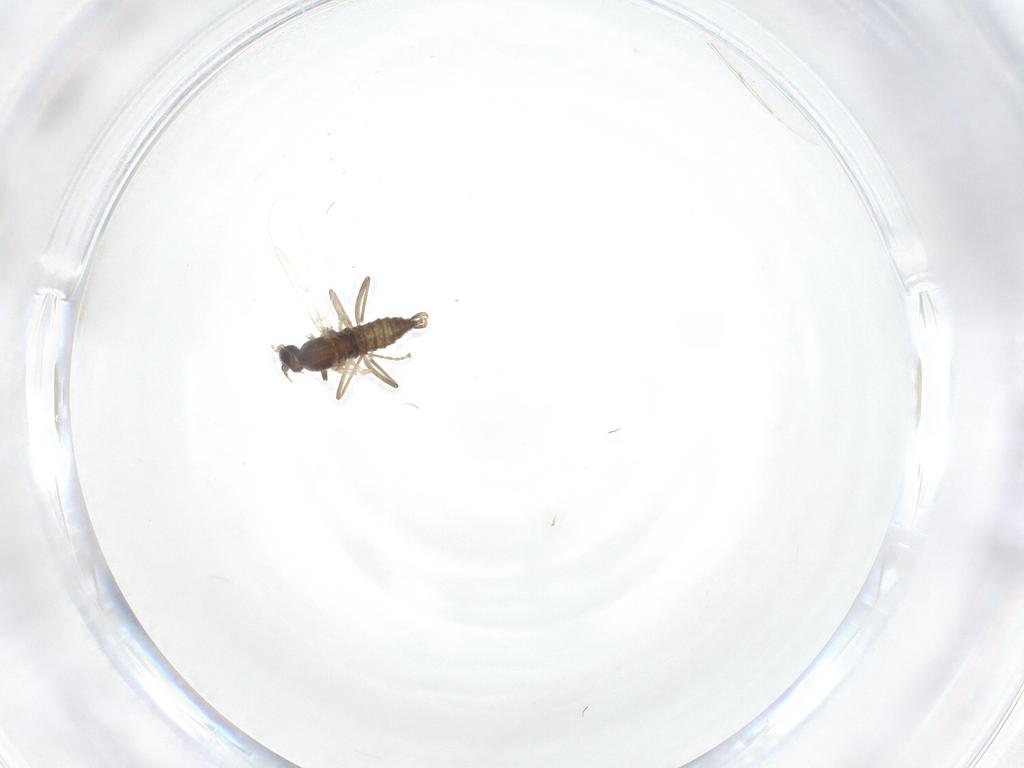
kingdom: Animalia
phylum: Arthropoda
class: Insecta
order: Diptera
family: Cecidomyiidae
